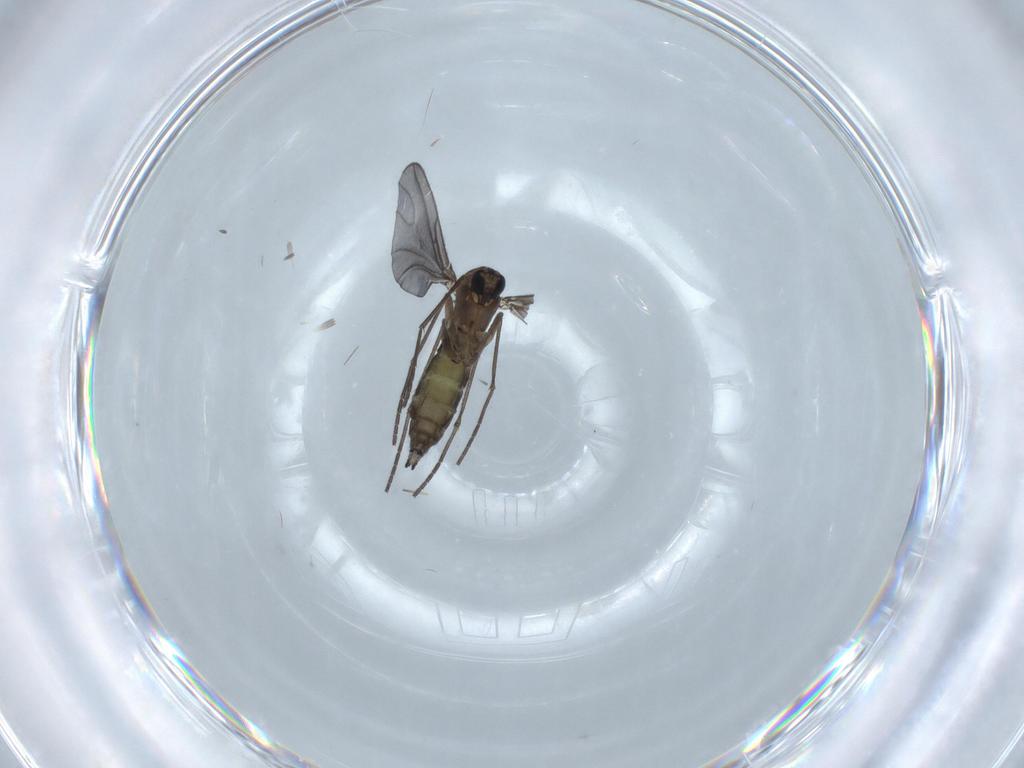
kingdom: Animalia
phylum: Arthropoda
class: Insecta
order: Diptera
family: Sciaridae
